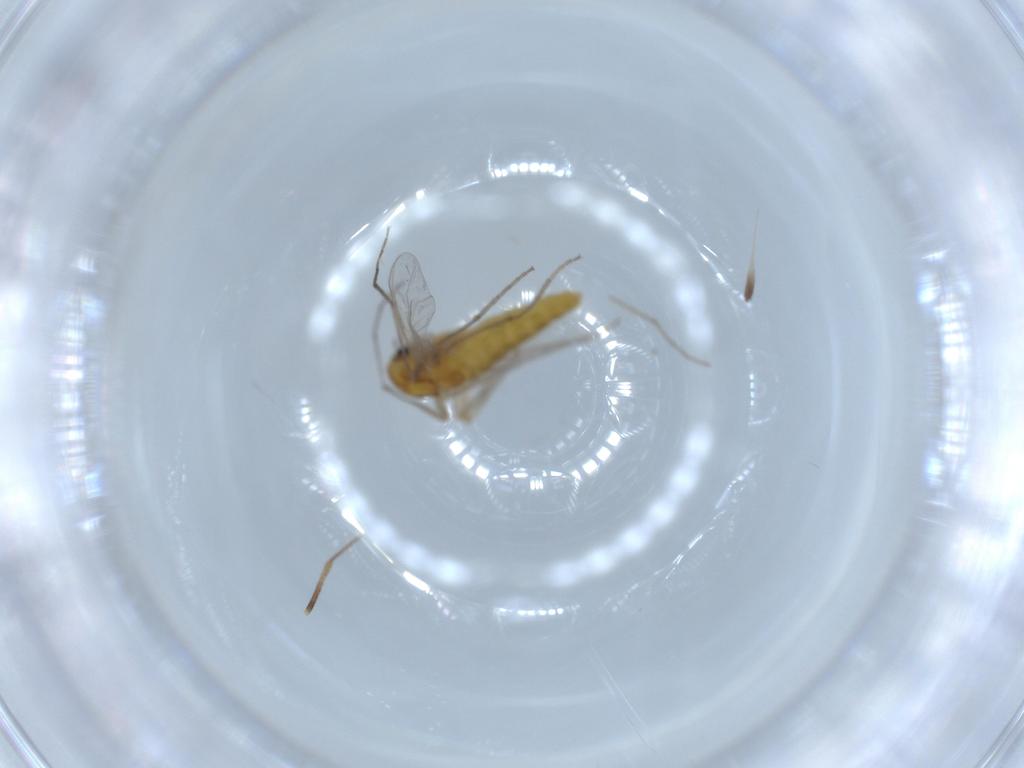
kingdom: Animalia
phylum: Arthropoda
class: Insecta
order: Diptera
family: Chironomidae
